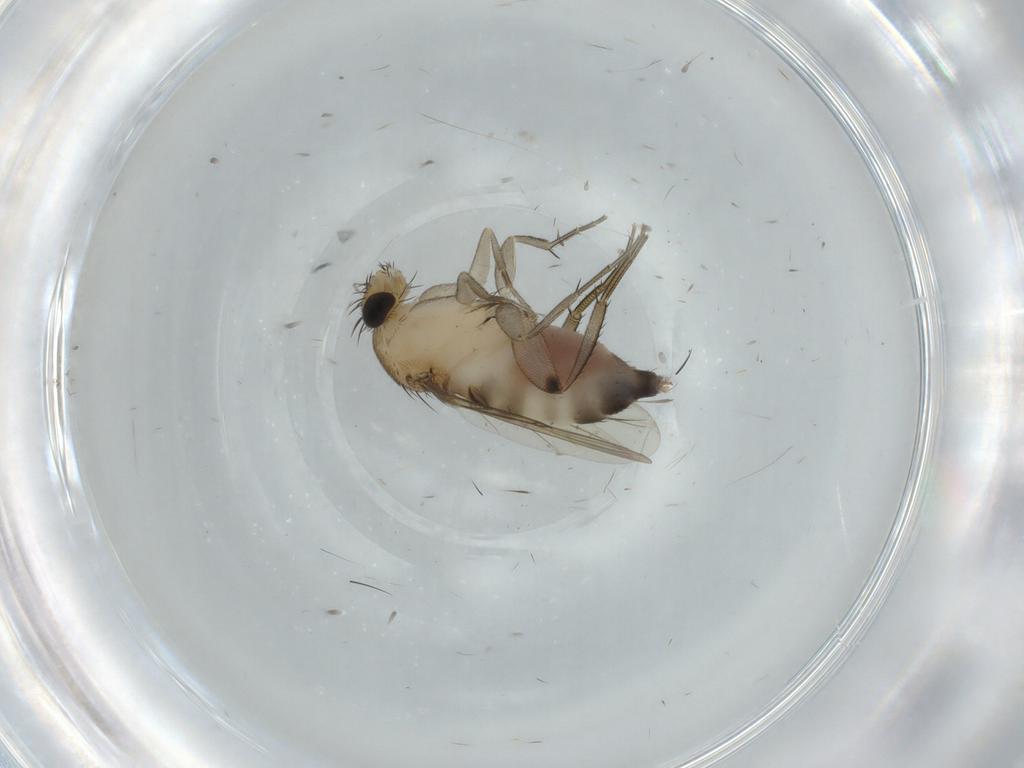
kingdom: Animalia
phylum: Arthropoda
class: Insecta
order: Diptera
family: Phoridae
